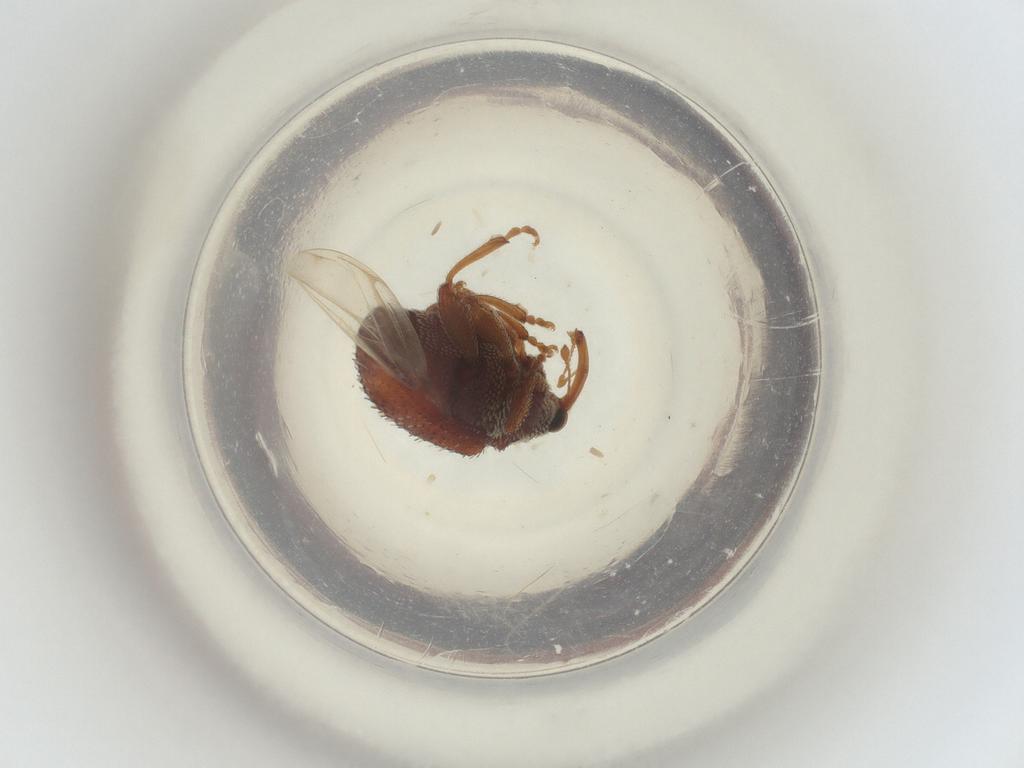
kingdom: Animalia
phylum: Arthropoda
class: Insecta
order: Coleoptera
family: Curculionidae
